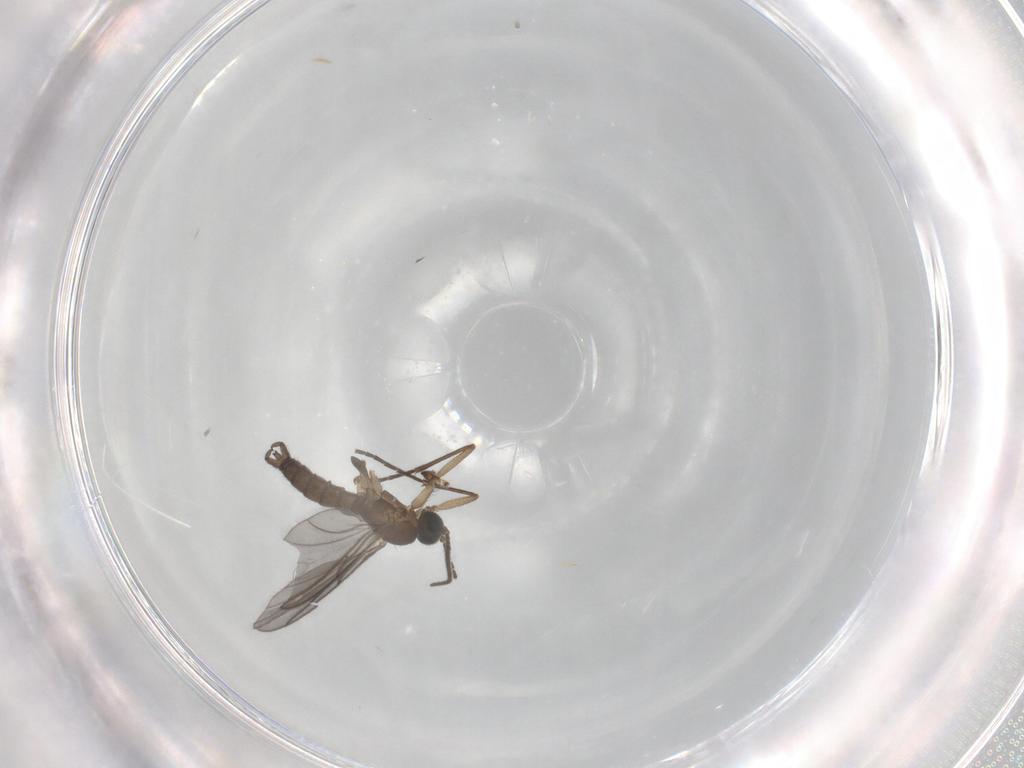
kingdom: Animalia
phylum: Arthropoda
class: Insecta
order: Diptera
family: Sciaridae
